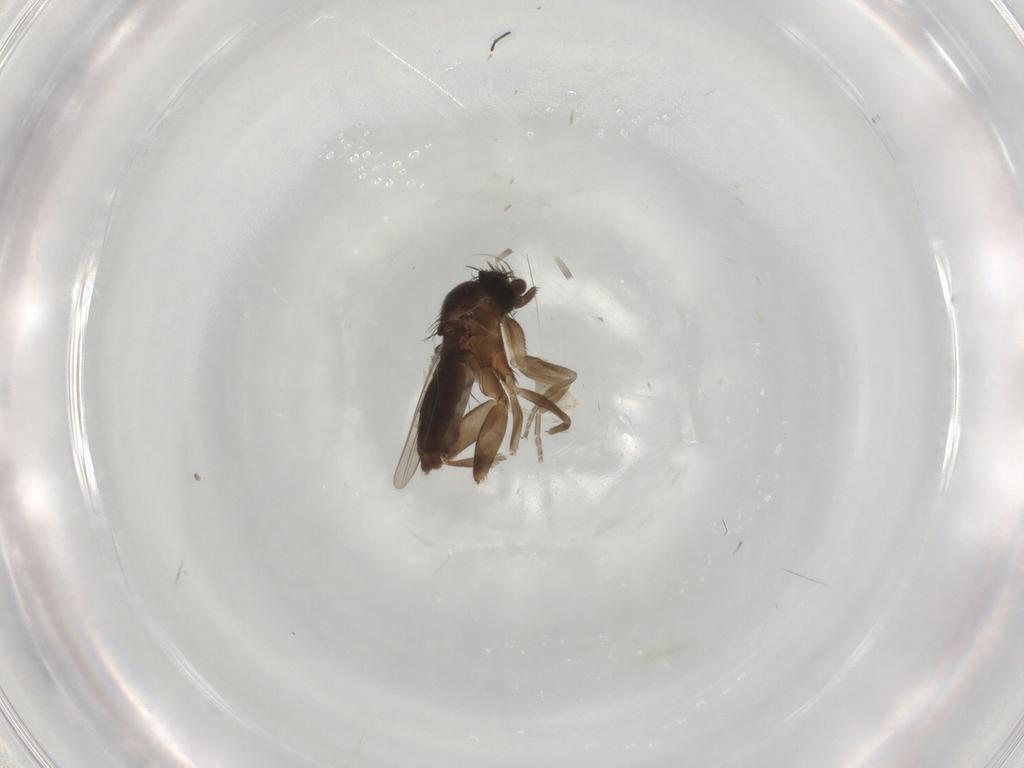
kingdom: Animalia
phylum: Arthropoda
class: Insecta
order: Diptera
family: Phoridae
